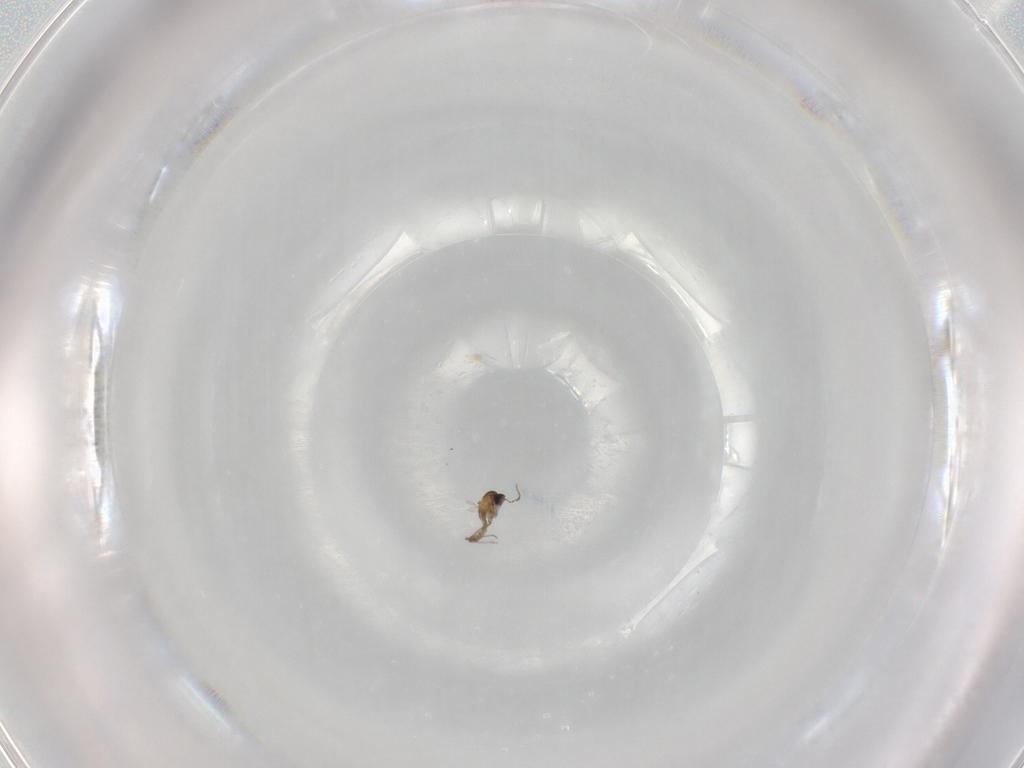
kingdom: Animalia
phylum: Arthropoda
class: Insecta
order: Diptera
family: Cecidomyiidae
